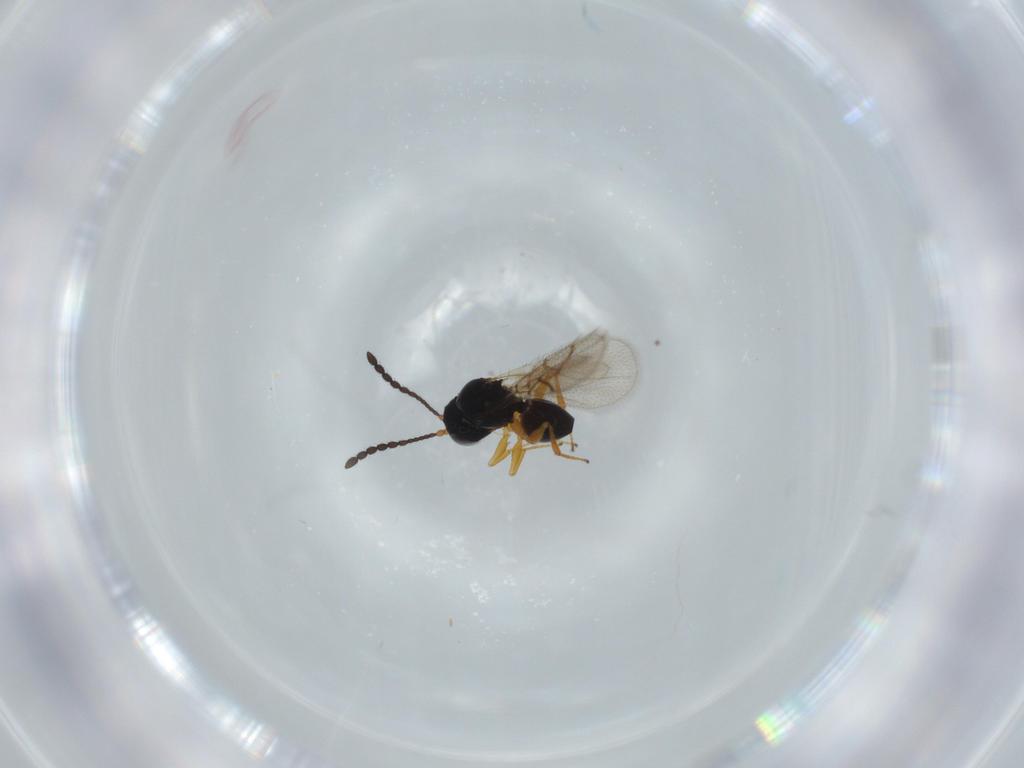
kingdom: Animalia
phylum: Arthropoda
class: Insecta
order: Hymenoptera
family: Figitidae
